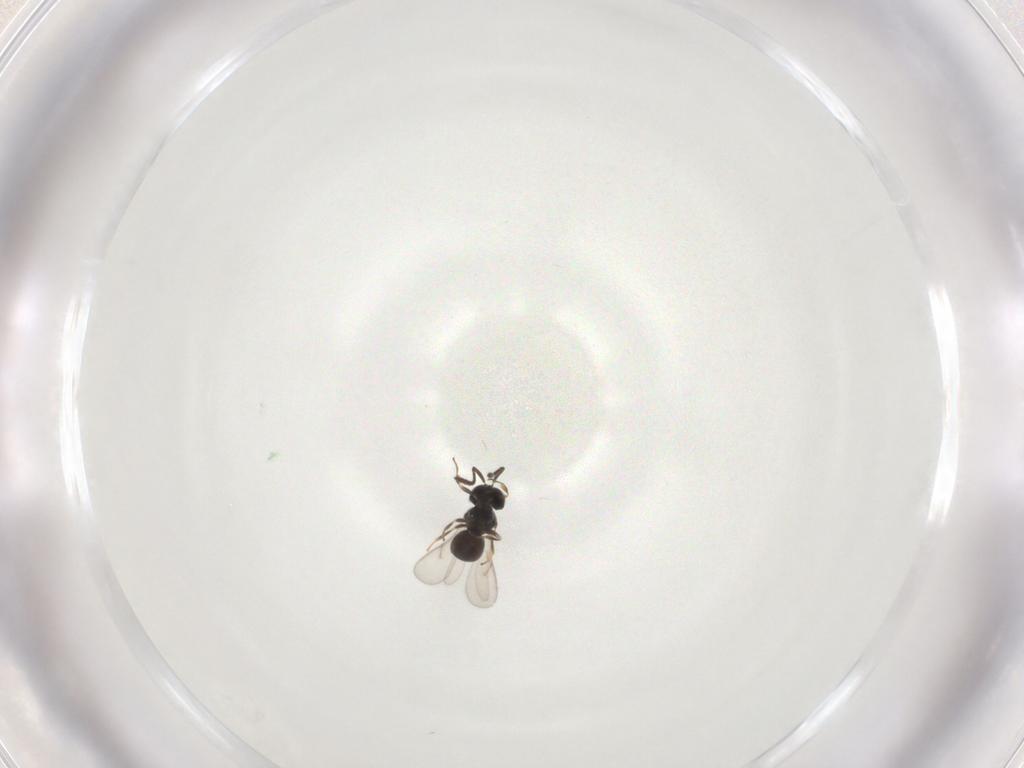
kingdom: Animalia
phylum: Arthropoda
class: Insecta
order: Hymenoptera
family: Scelionidae
